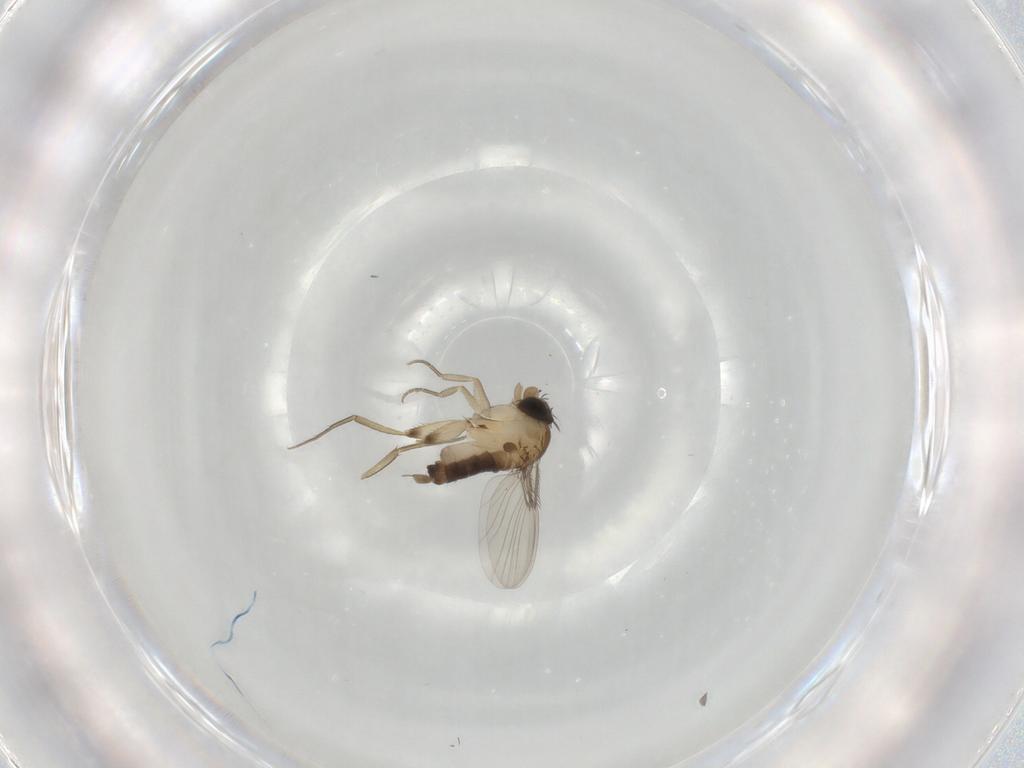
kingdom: Animalia
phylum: Arthropoda
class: Insecta
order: Diptera
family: Phoridae
